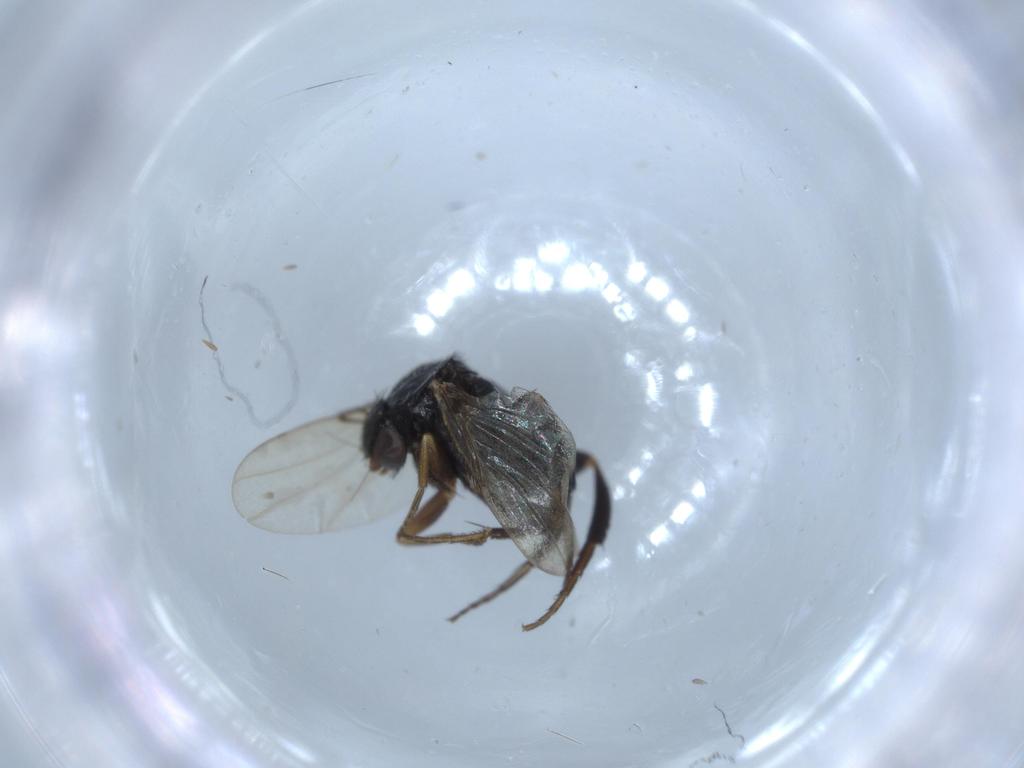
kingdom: Animalia
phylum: Arthropoda
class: Insecta
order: Diptera
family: Phoridae
